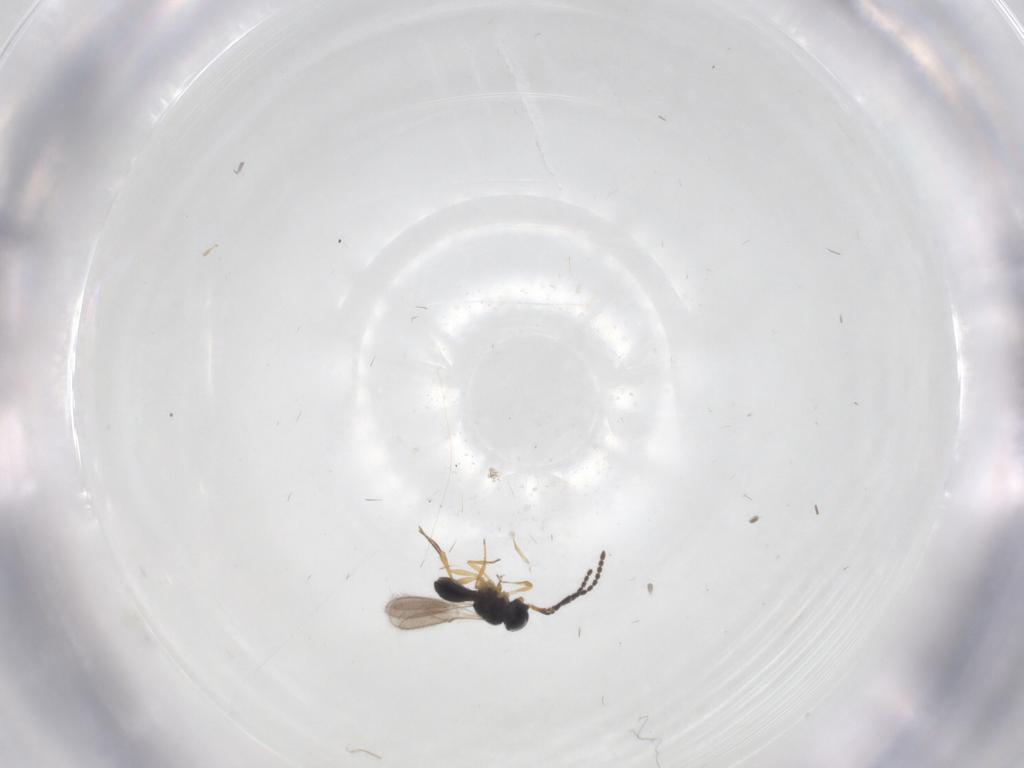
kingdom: Animalia
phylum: Arthropoda
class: Insecta
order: Hymenoptera
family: Scelionidae
